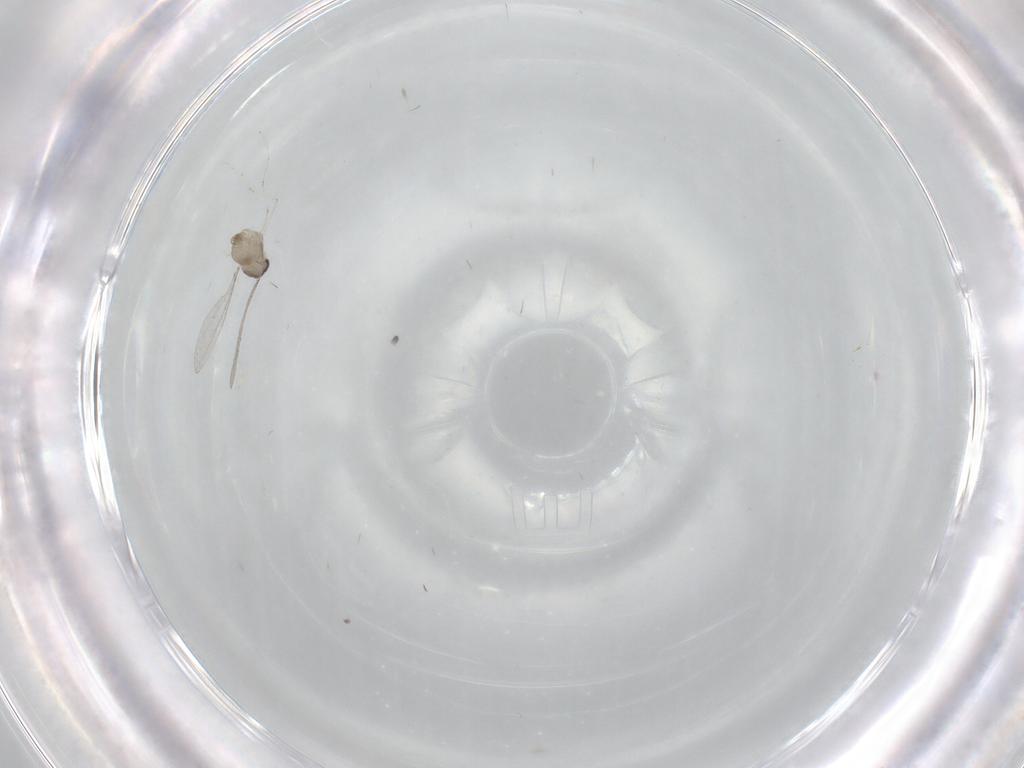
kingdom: Animalia
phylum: Arthropoda
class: Insecta
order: Diptera
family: Cecidomyiidae
